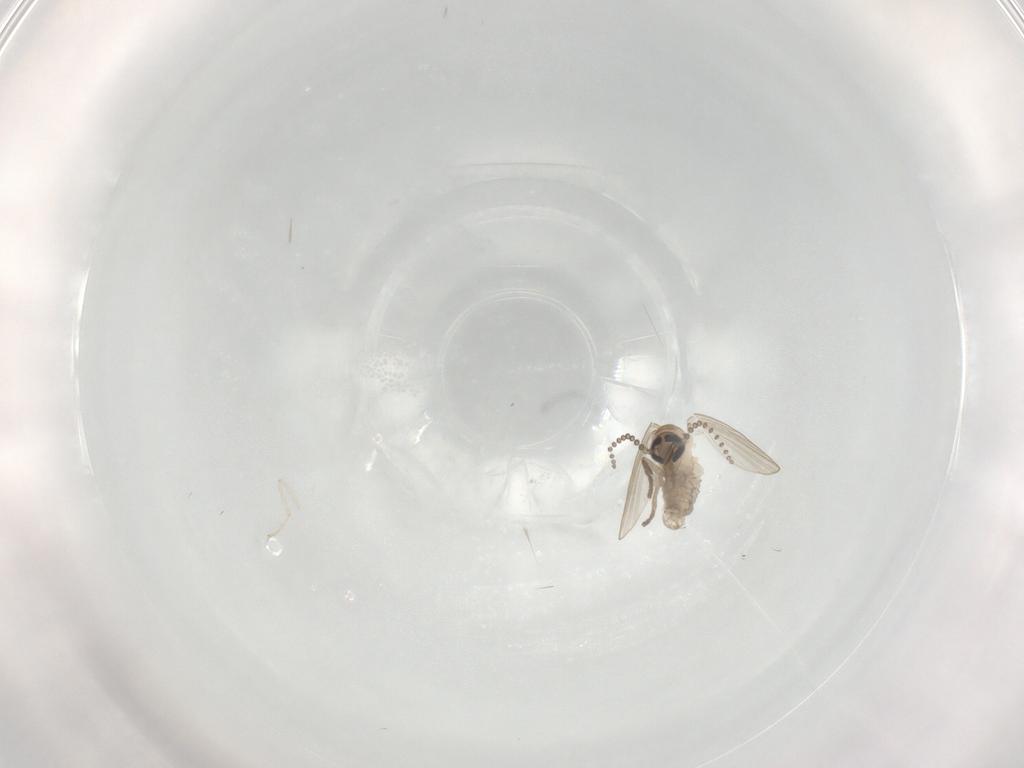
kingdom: Animalia
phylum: Arthropoda
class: Insecta
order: Diptera
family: Psychodidae
